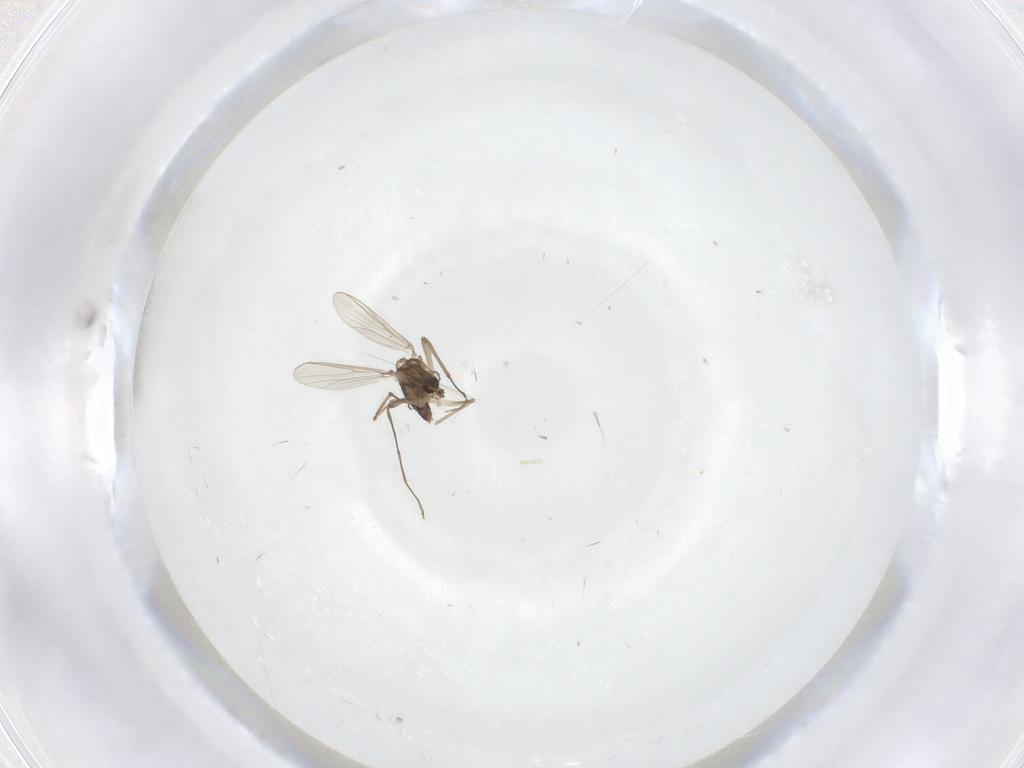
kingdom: Animalia
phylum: Arthropoda
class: Insecta
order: Diptera
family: Chironomidae
